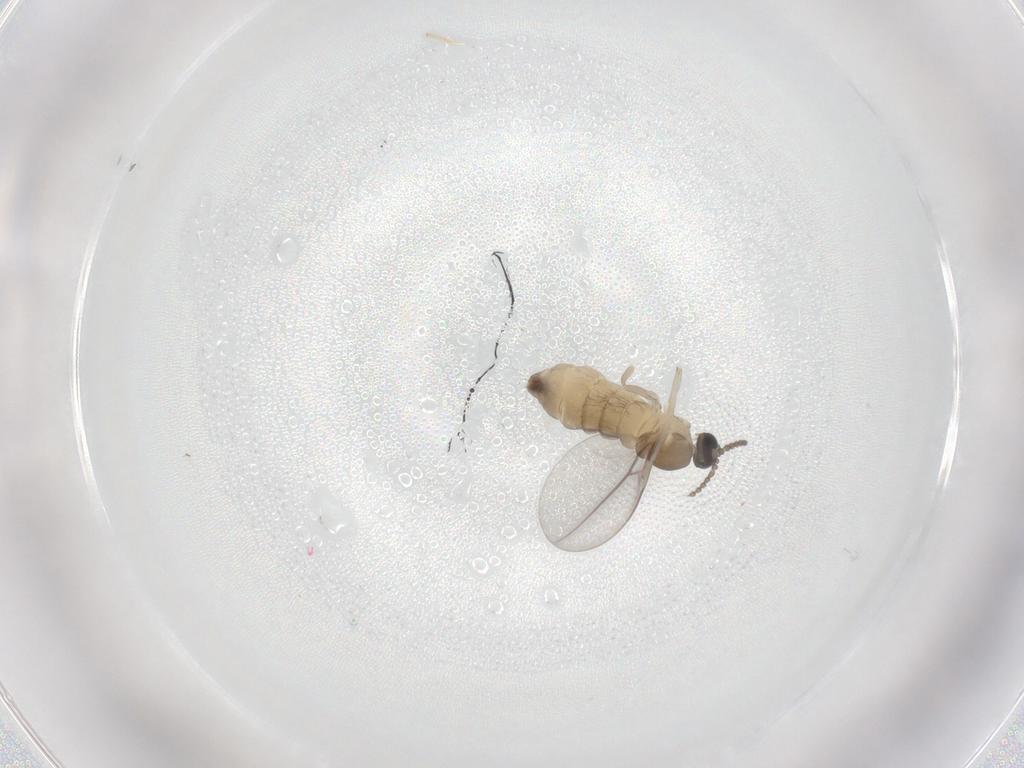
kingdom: Animalia
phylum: Arthropoda
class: Insecta
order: Diptera
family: Cecidomyiidae
